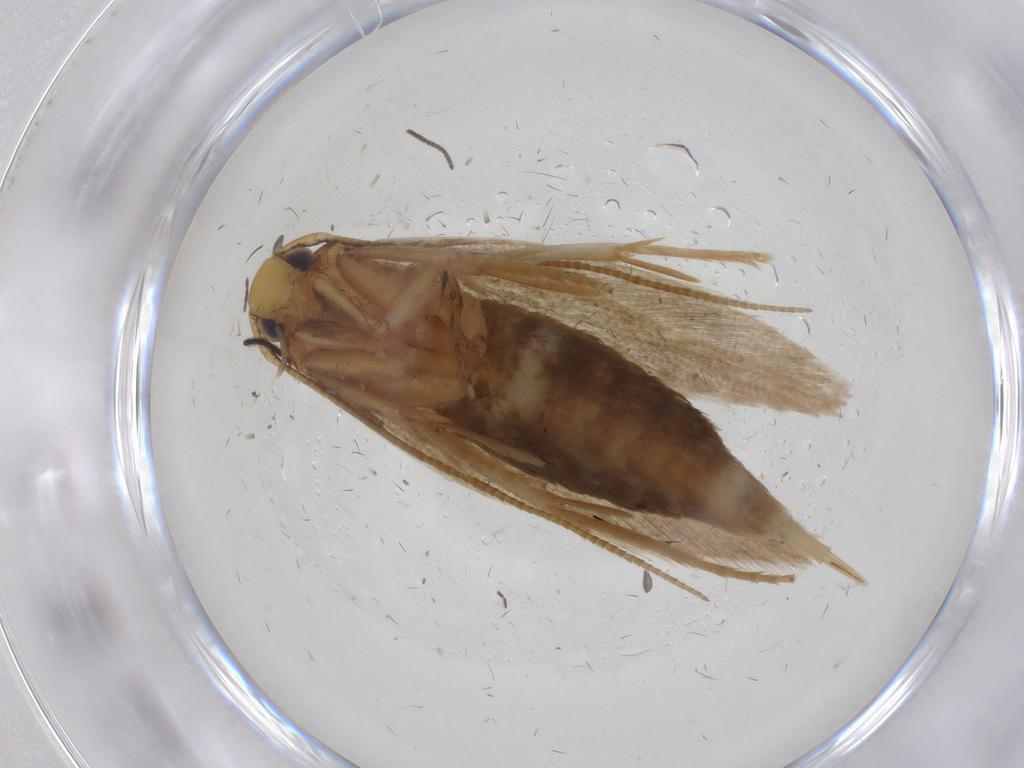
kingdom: Animalia
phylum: Arthropoda
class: Insecta
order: Lepidoptera
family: Tineidae
